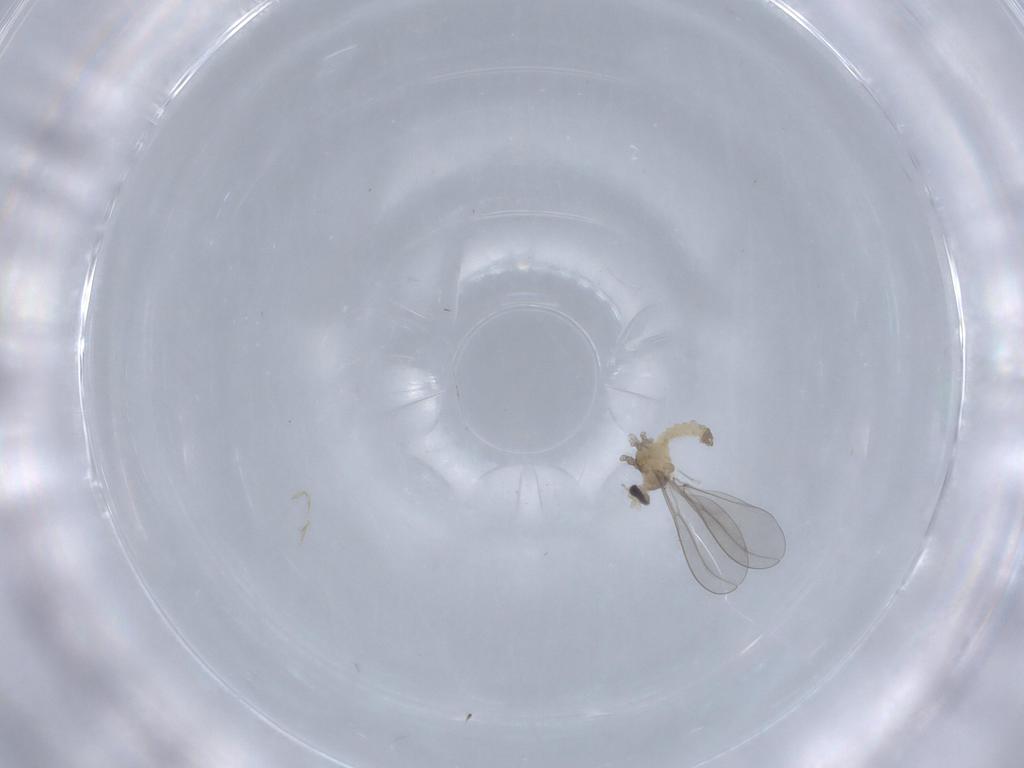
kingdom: Animalia
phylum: Arthropoda
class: Insecta
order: Diptera
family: Cecidomyiidae
